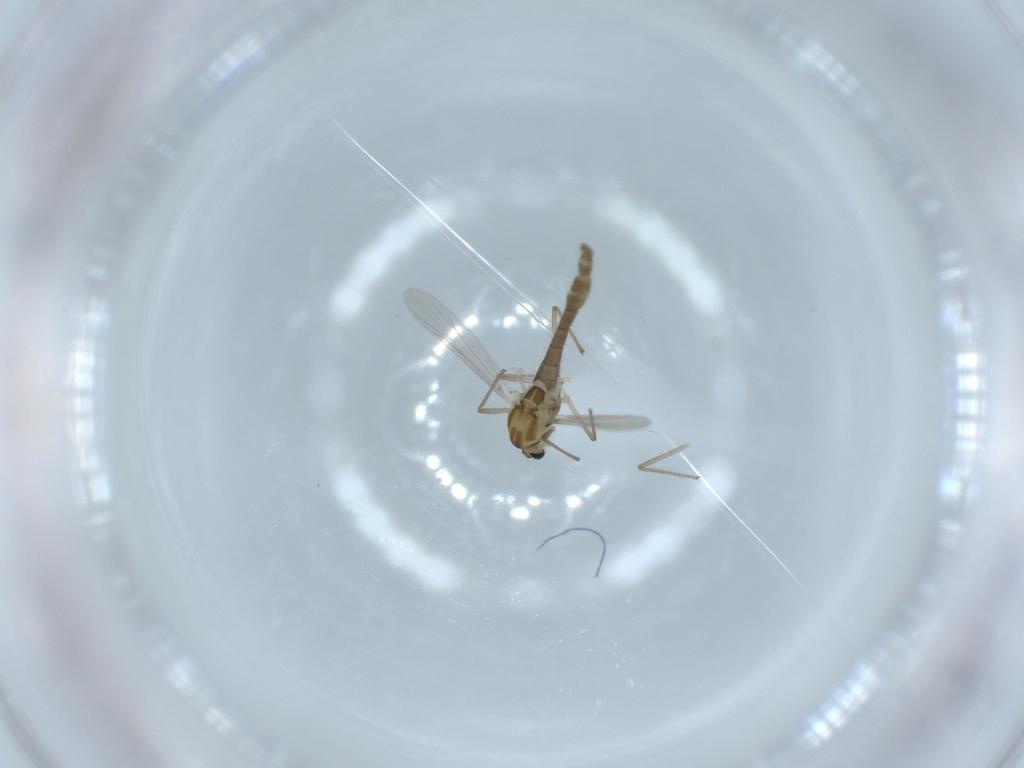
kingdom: Animalia
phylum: Arthropoda
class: Insecta
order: Diptera
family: Chironomidae
